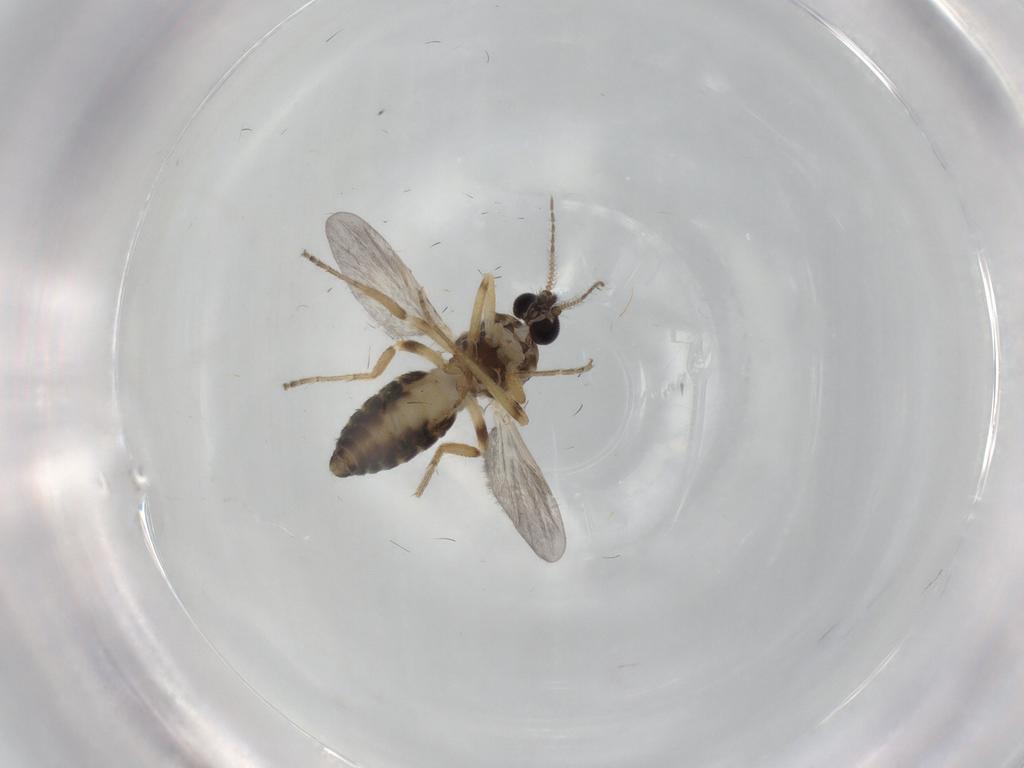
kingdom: Animalia
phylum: Arthropoda
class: Insecta
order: Diptera
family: Ceratopogonidae
